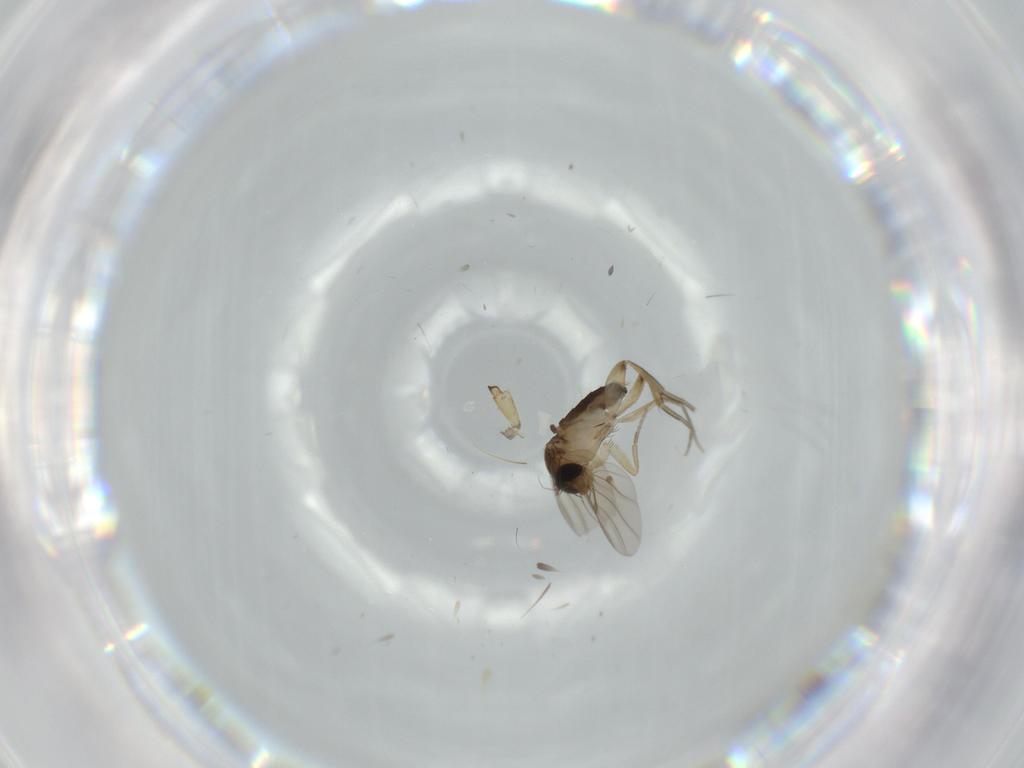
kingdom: Animalia
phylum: Arthropoda
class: Insecta
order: Diptera
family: Phoridae
